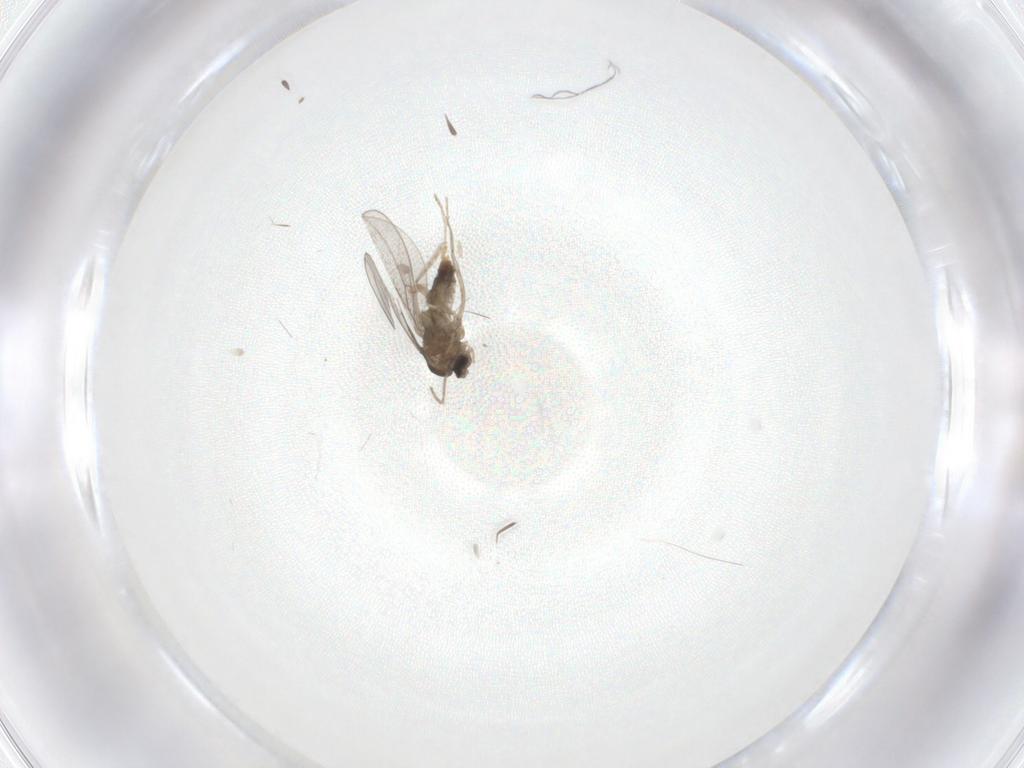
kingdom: Animalia
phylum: Arthropoda
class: Insecta
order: Diptera
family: Cecidomyiidae
